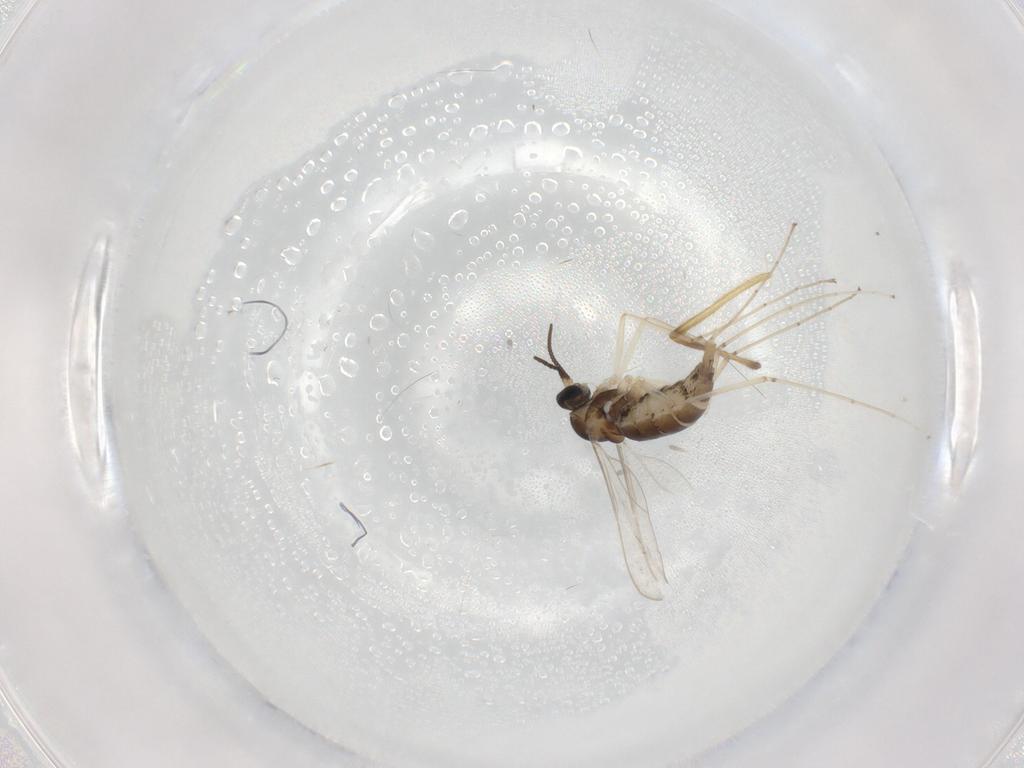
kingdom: Animalia
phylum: Arthropoda
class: Insecta
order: Diptera
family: Cecidomyiidae
